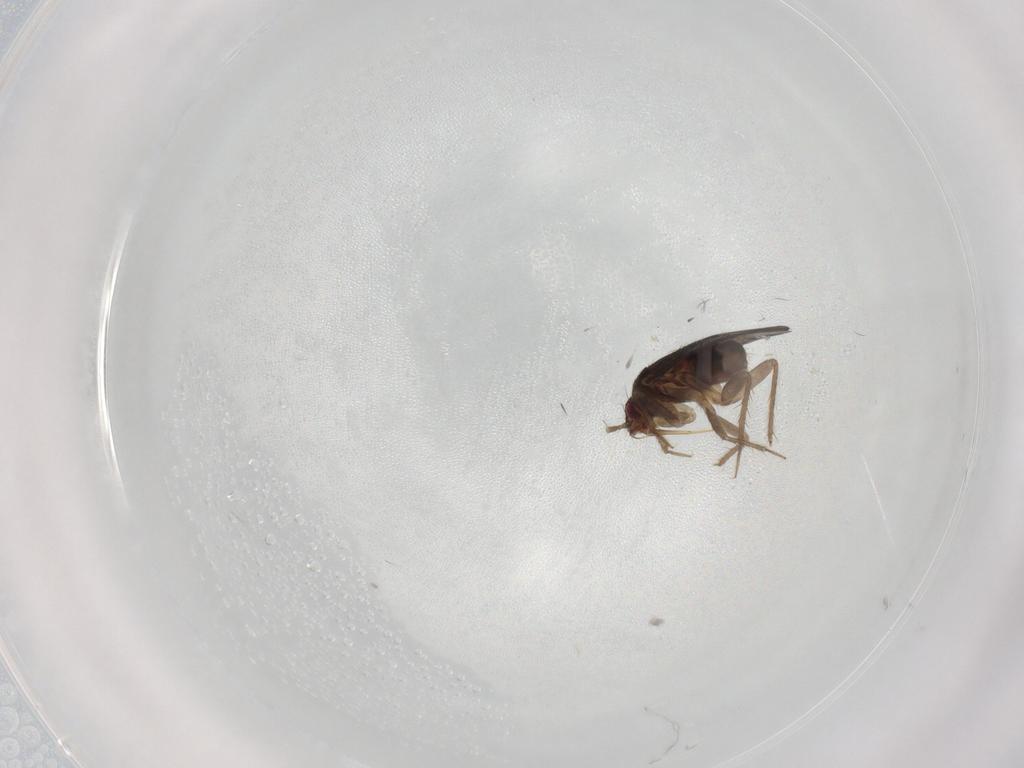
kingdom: Animalia
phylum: Arthropoda
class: Insecta
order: Hemiptera
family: Ceratocombidae
